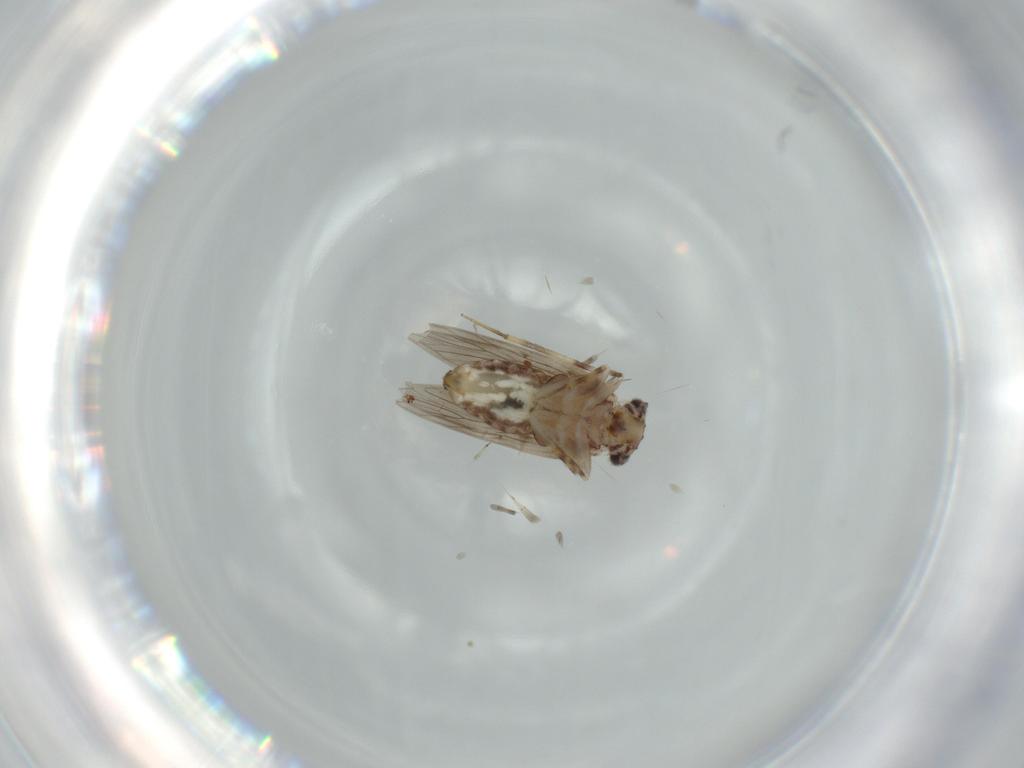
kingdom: Animalia
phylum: Arthropoda
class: Insecta
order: Psocodea
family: Lepidopsocidae
